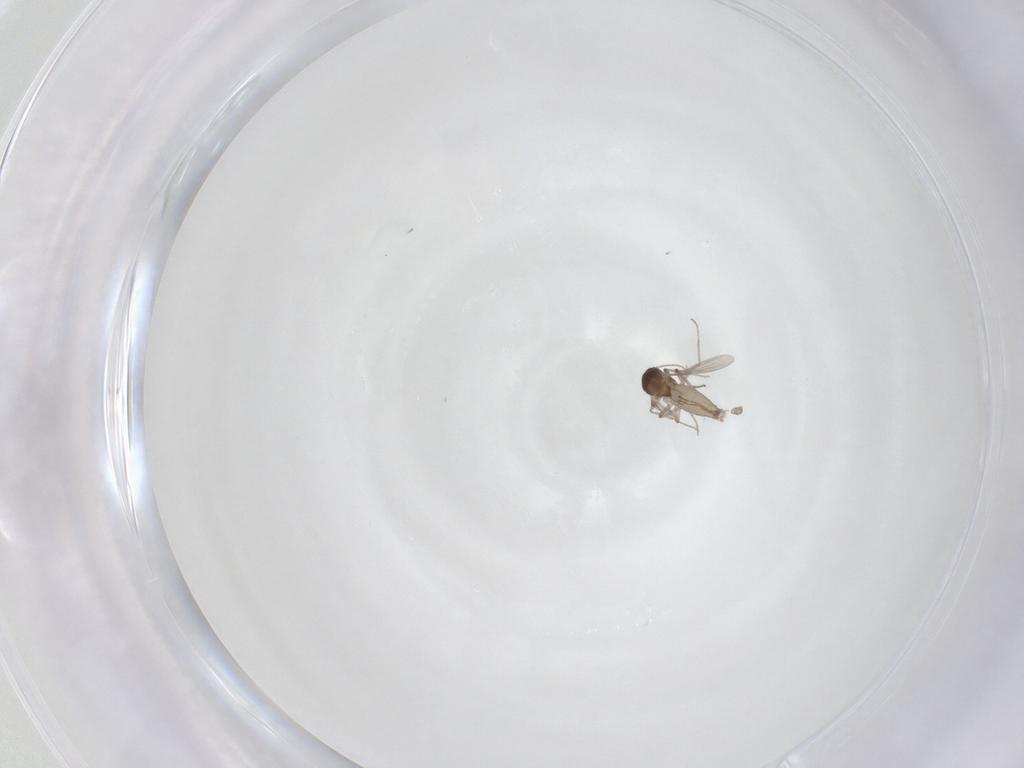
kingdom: Animalia
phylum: Arthropoda
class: Insecta
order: Diptera
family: Ceratopogonidae
